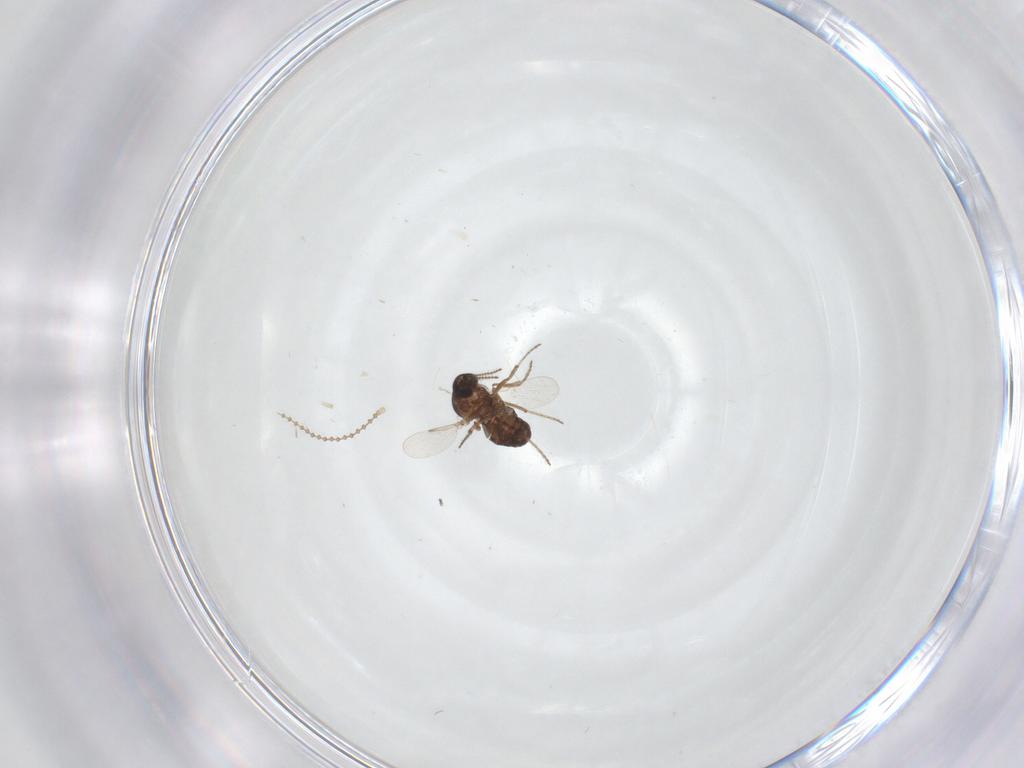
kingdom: Animalia
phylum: Arthropoda
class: Insecta
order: Diptera
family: Ceratopogonidae
